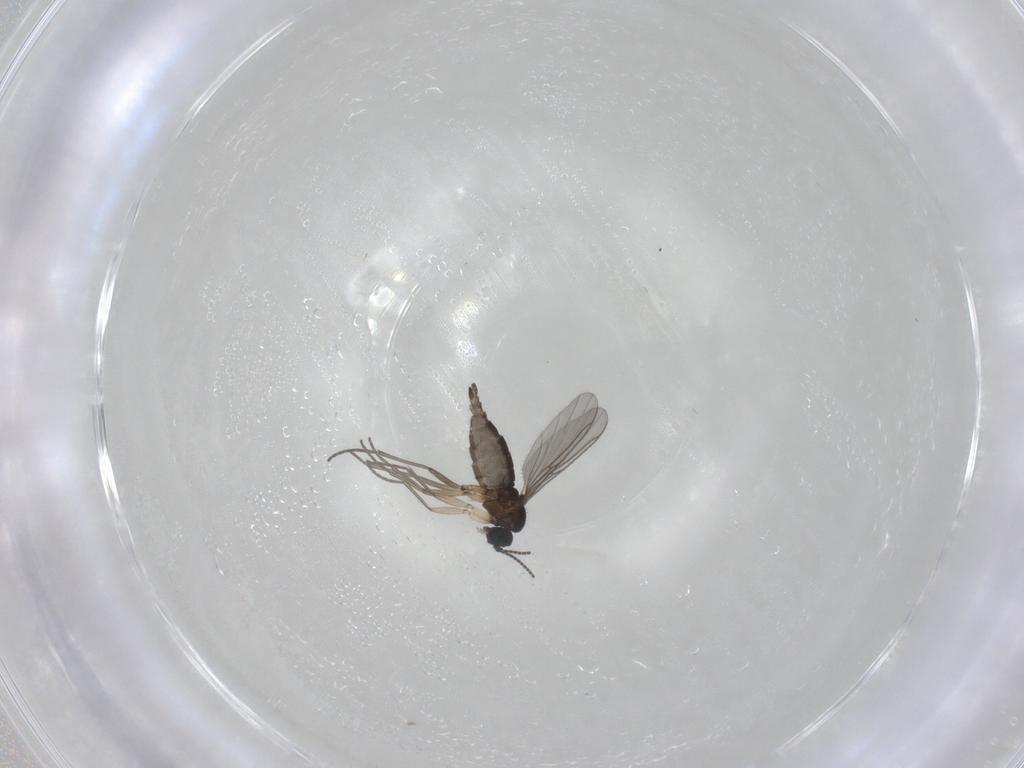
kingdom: Animalia
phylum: Arthropoda
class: Insecta
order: Diptera
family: Sciaridae
